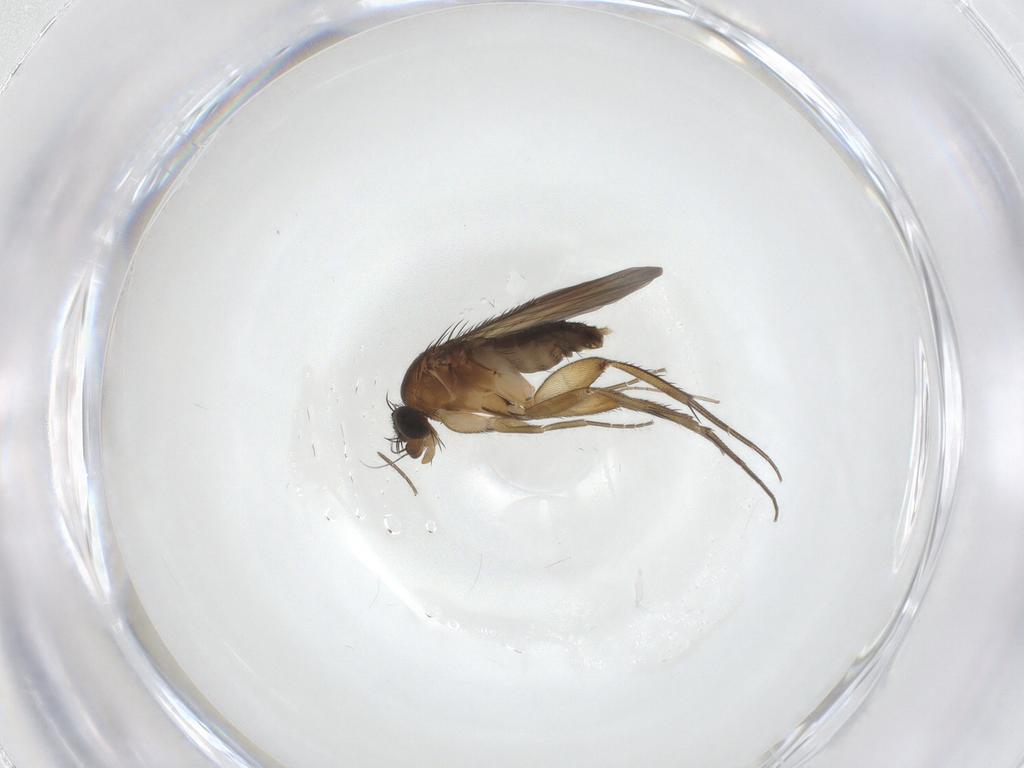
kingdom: Animalia
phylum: Arthropoda
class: Insecta
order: Diptera
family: Phoridae
